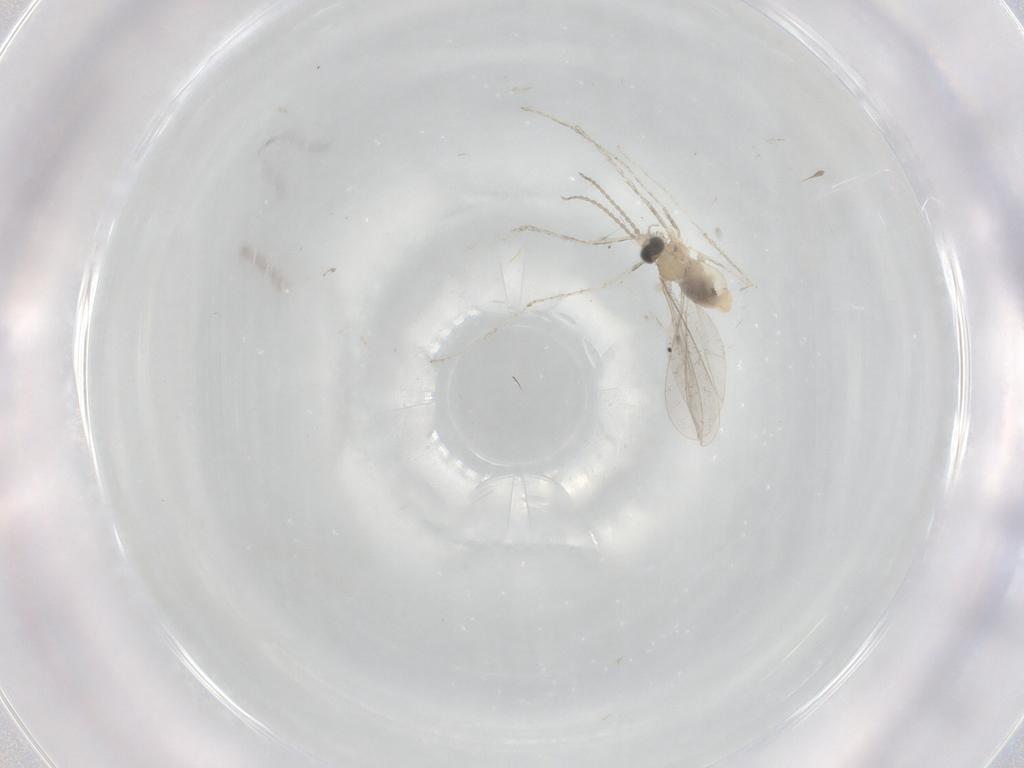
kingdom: Animalia
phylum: Arthropoda
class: Insecta
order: Diptera
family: Cecidomyiidae
